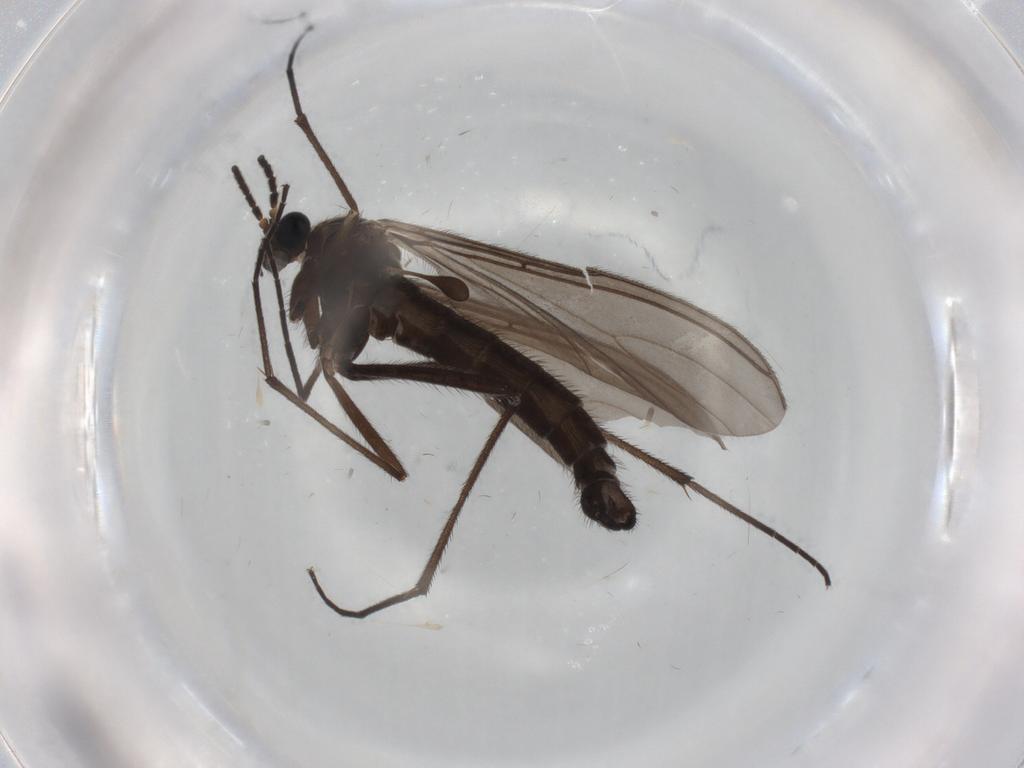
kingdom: Animalia
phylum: Arthropoda
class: Insecta
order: Diptera
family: Sciaridae
